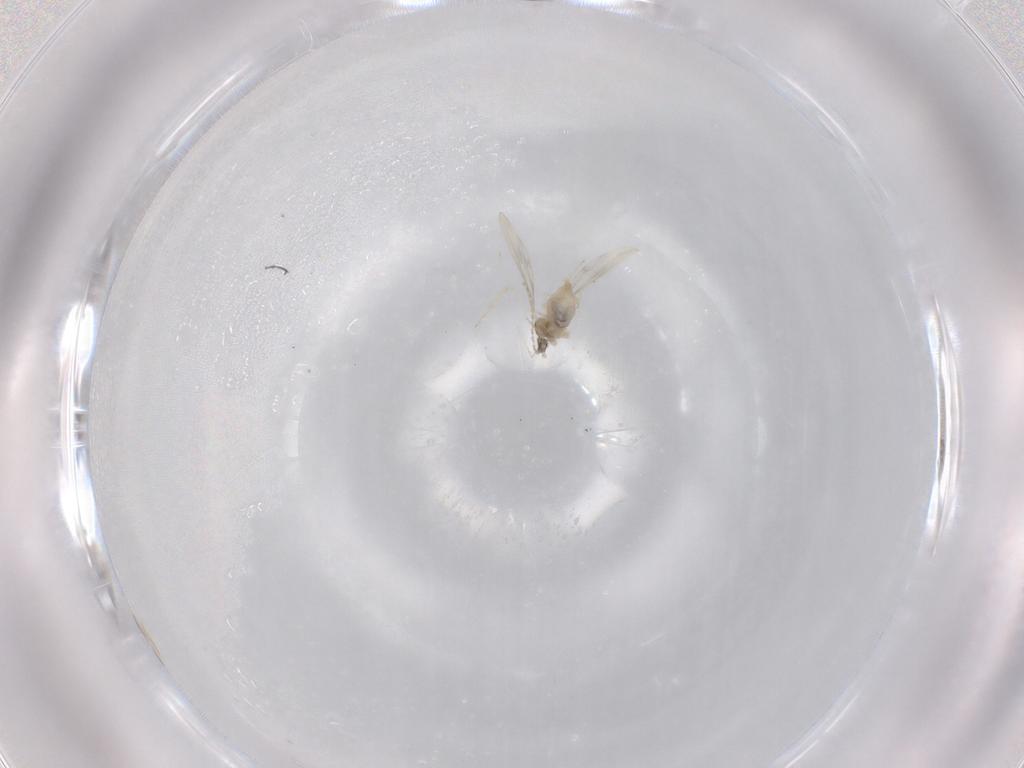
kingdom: Animalia
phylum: Arthropoda
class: Insecta
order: Diptera
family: Cecidomyiidae
